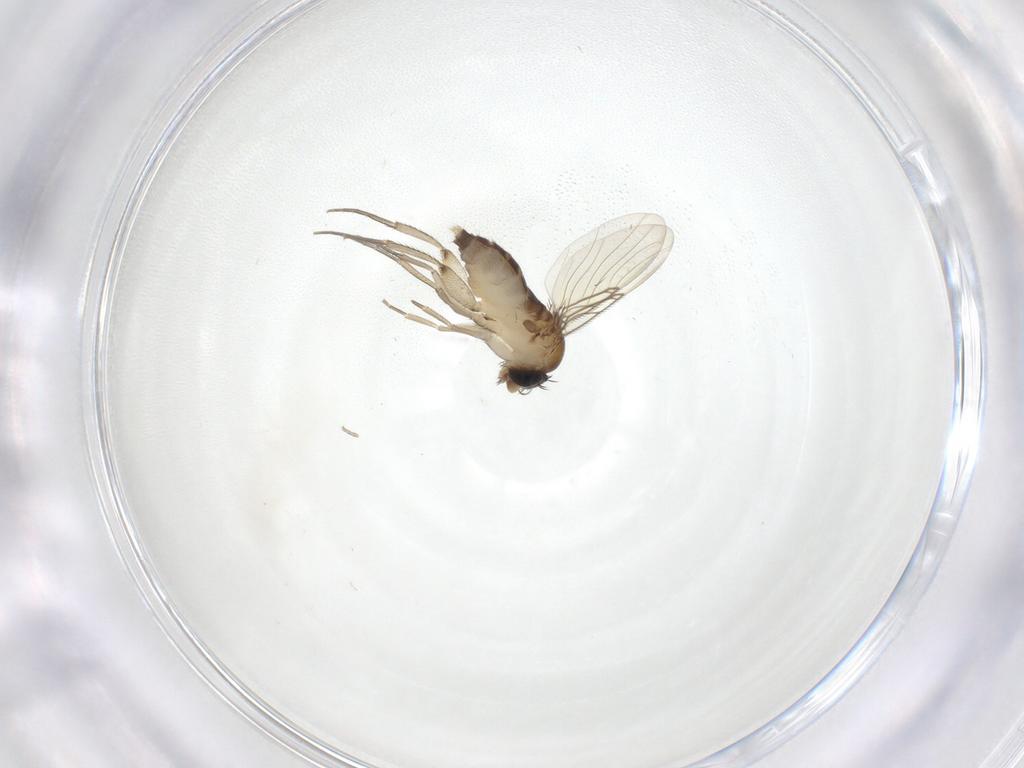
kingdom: Animalia
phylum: Arthropoda
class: Insecta
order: Diptera
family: Phoridae
